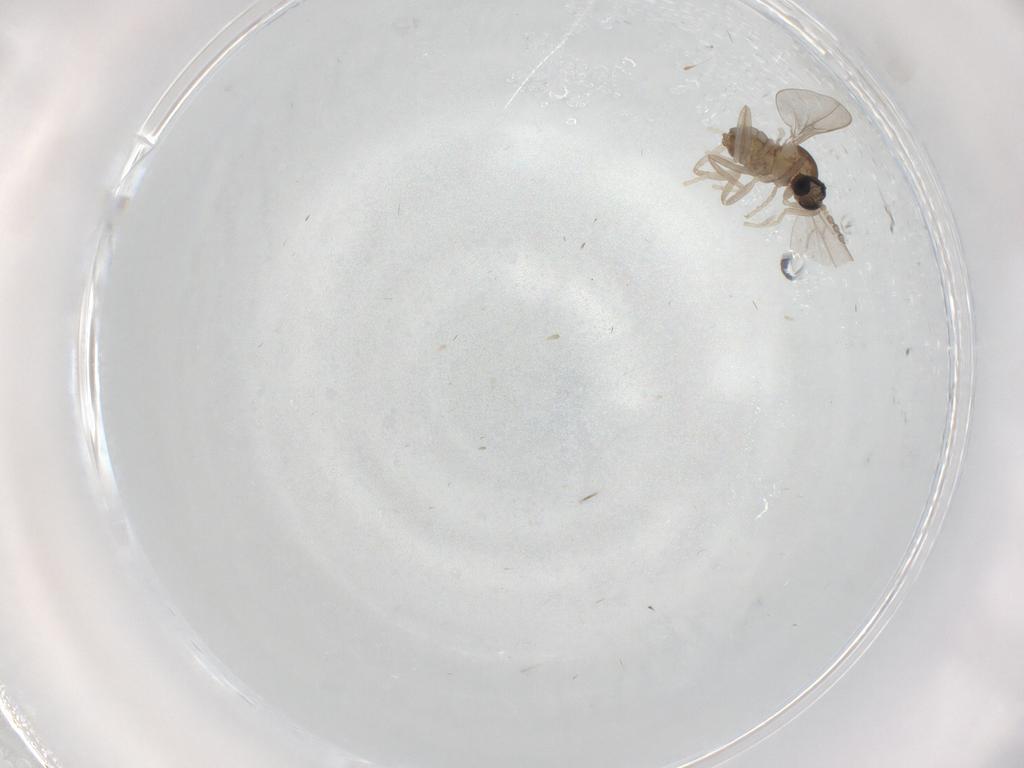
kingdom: Animalia
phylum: Arthropoda
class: Insecta
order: Diptera
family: Cecidomyiidae
